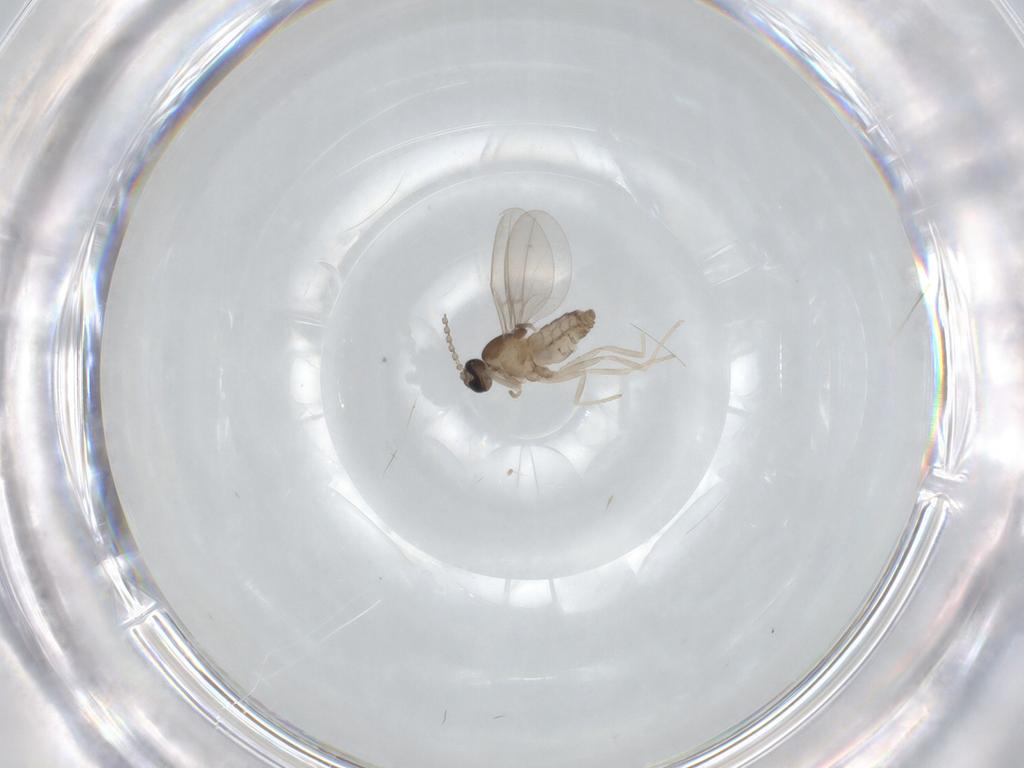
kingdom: Animalia
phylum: Arthropoda
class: Insecta
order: Diptera
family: Cecidomyiidae
